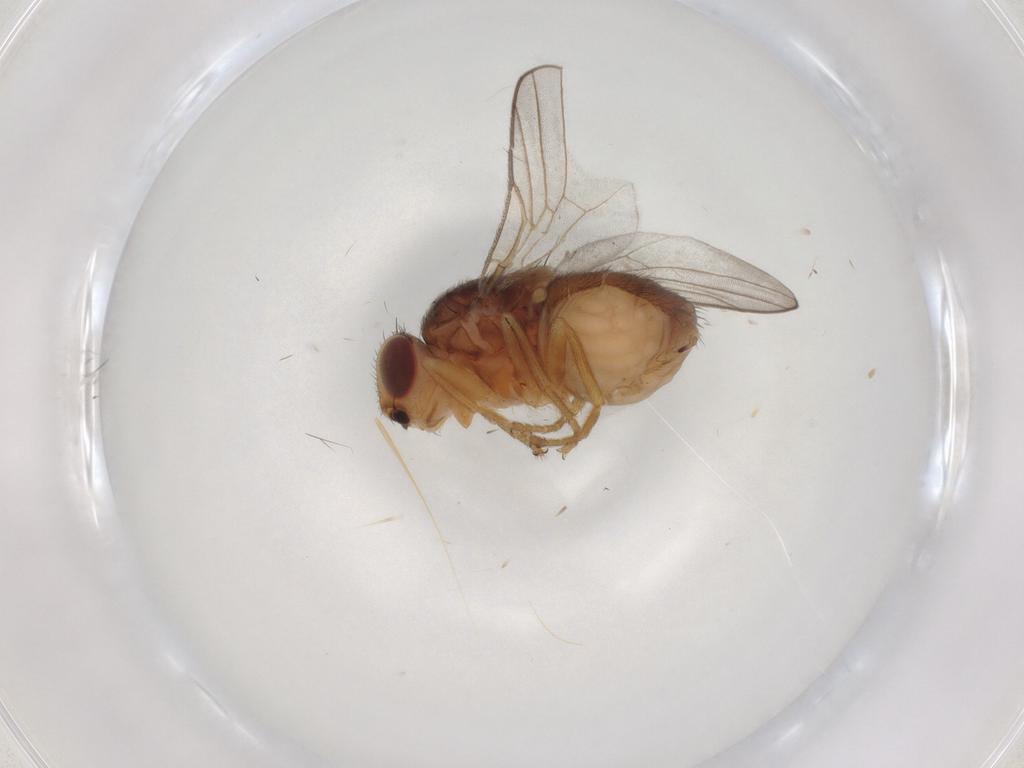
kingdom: Animalia
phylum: Arthropoda
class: Insecta
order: Diptera
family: Chloropidae
